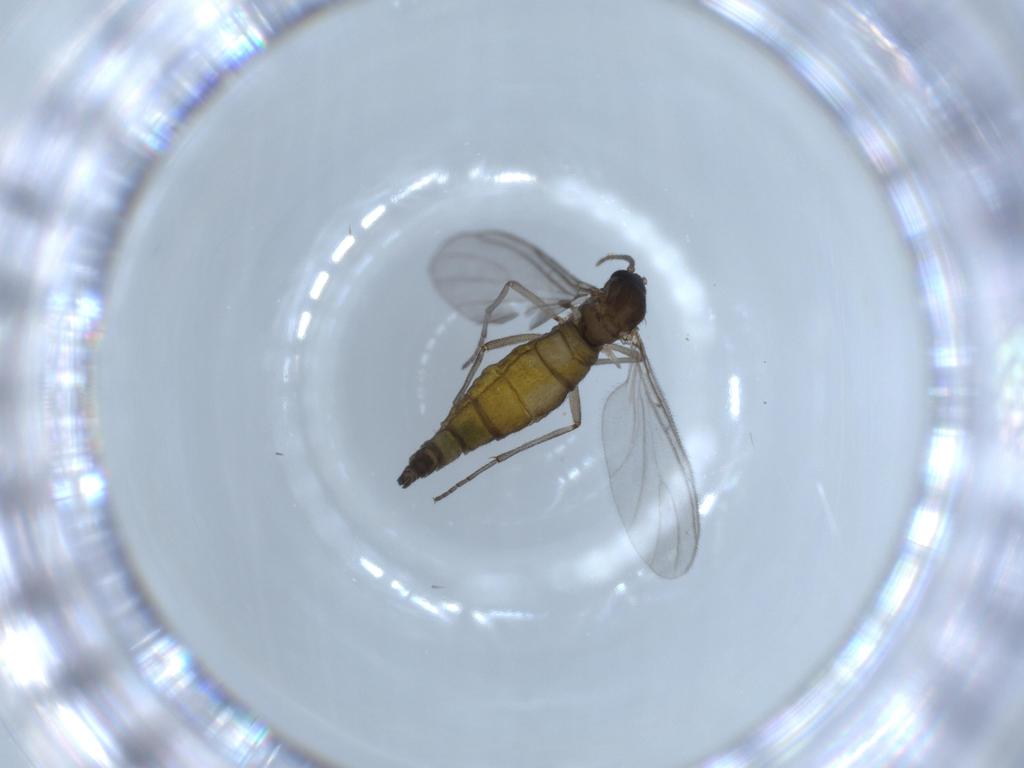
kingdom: Animalia
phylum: Arthropoda
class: Insecta
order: Diptera
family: Sciaridae
